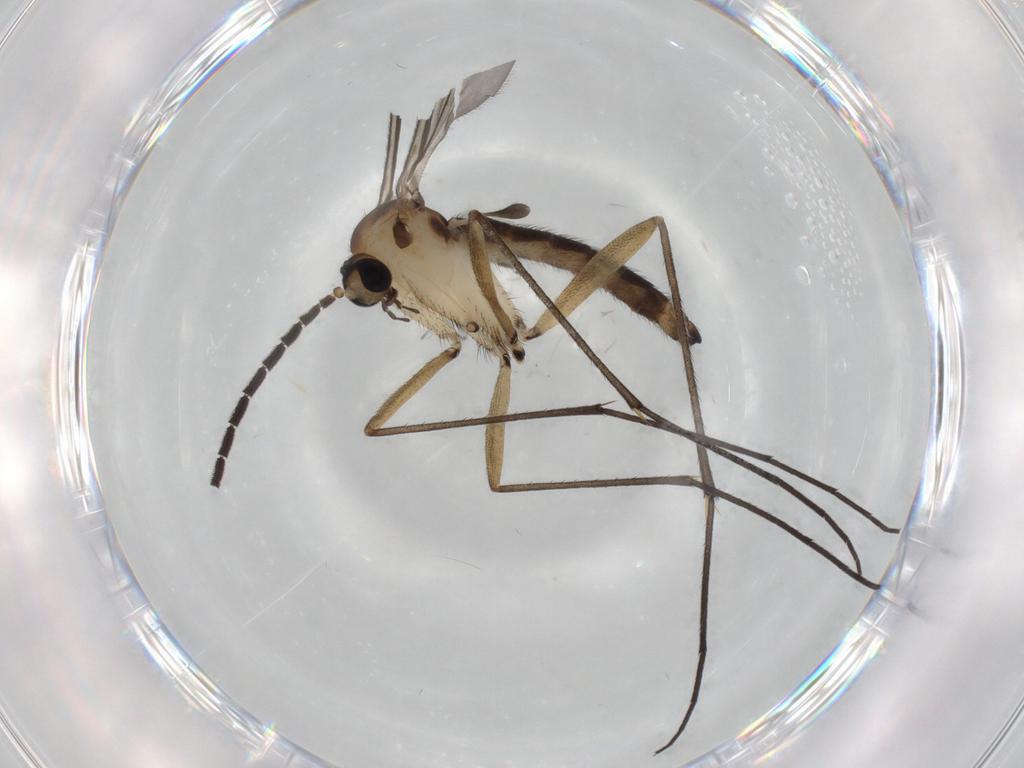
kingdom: Animalia
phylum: Arthropoda
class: Insecta
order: Diptera
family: Sciaridae
